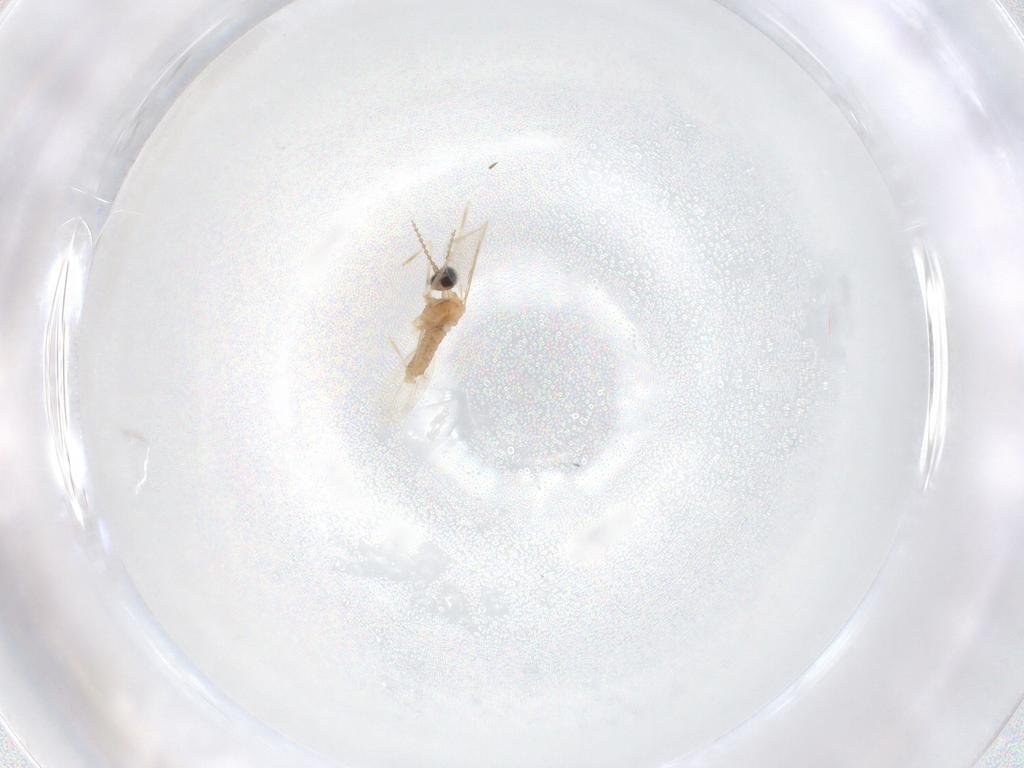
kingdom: Animalia
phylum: Arthropoda
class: Insecta
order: Diptera
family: Cecidomyiidae
